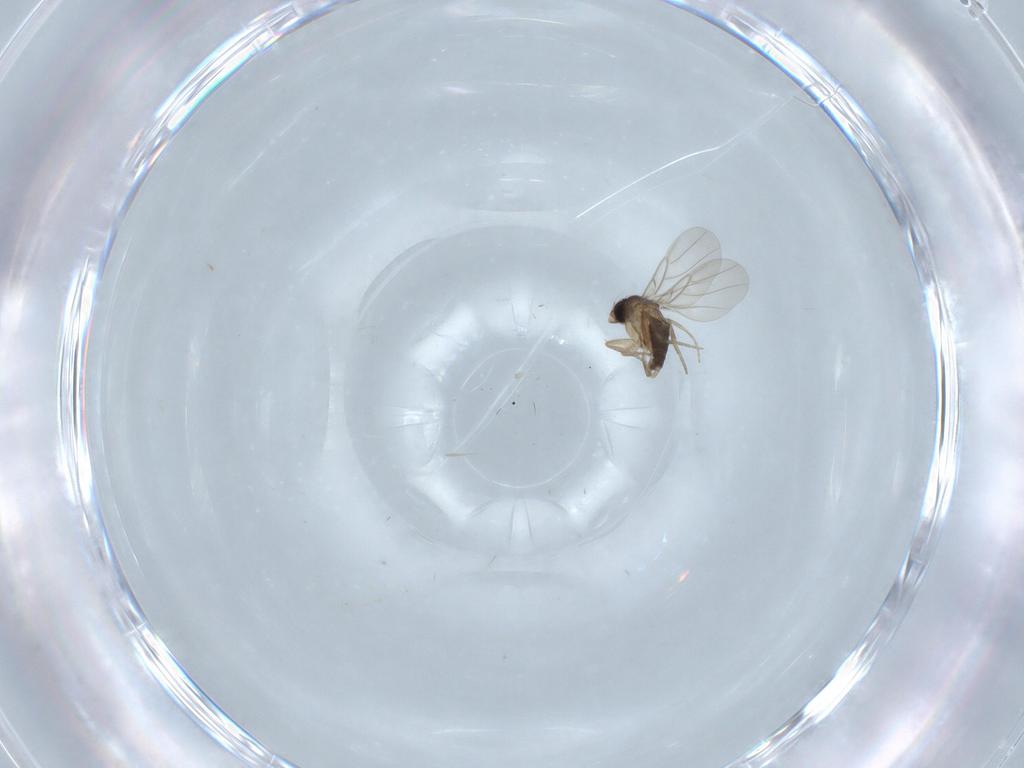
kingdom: Animalia
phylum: Arthropoda
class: Insecta
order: Diptera
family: Phoridae
